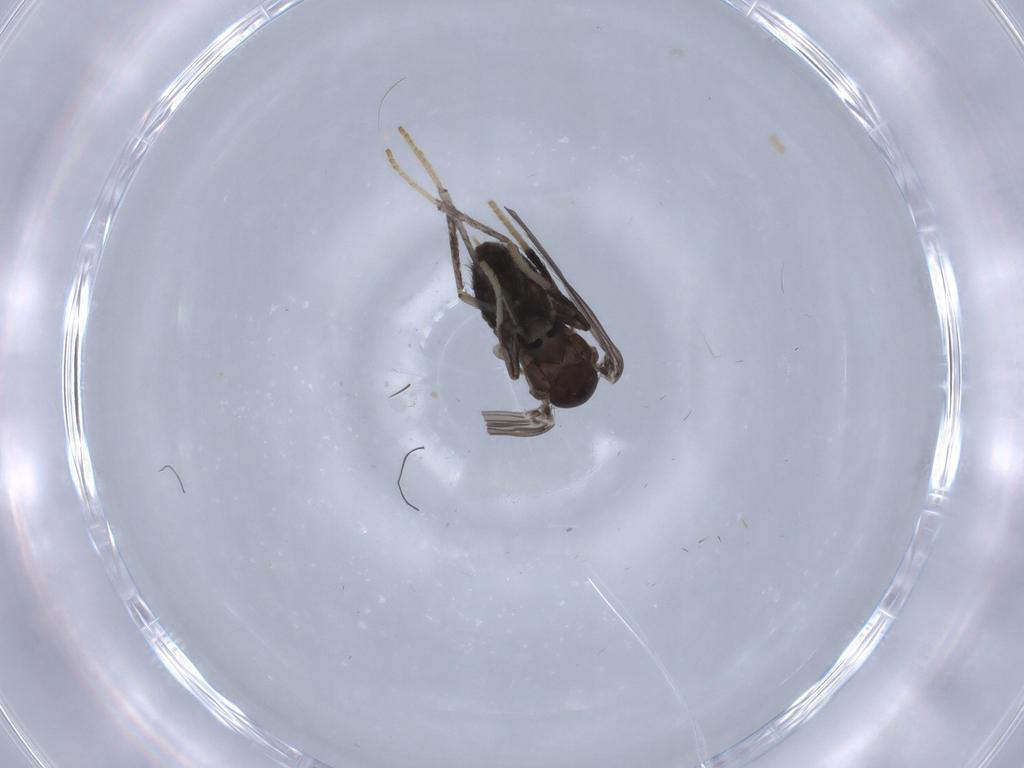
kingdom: Animalia
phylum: Arthropoda
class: Insecta
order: Diptera
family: Psychodidae
